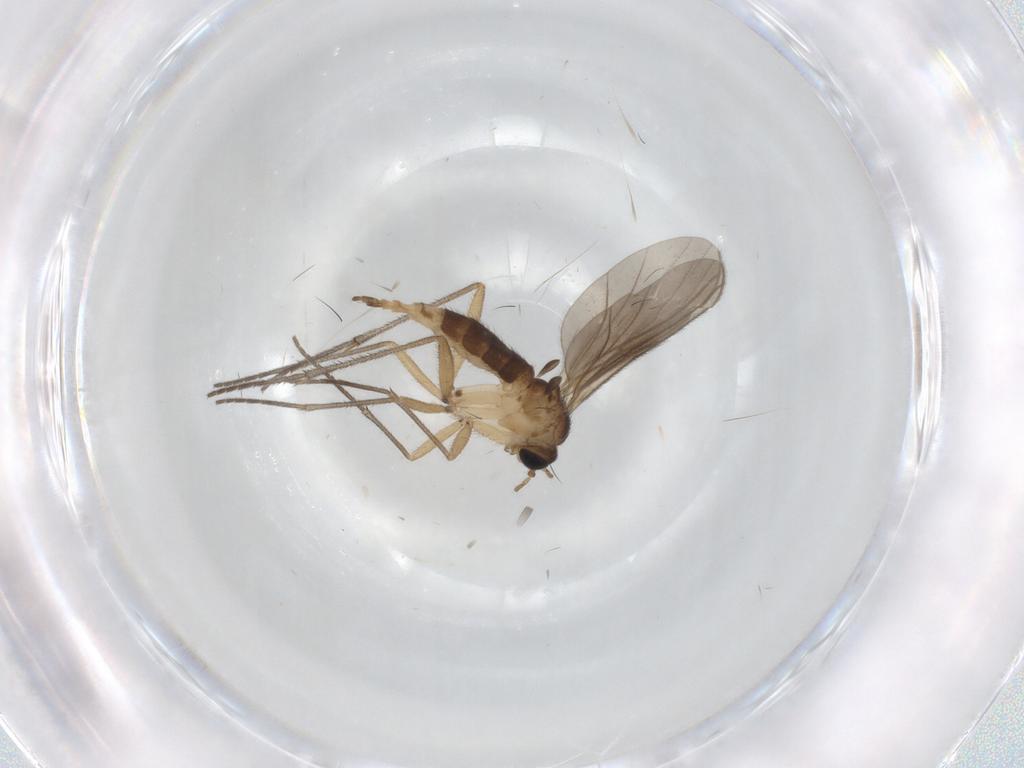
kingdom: Animalia
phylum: Arthropoda
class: Insecta
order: Diptera
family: Sciaridae
